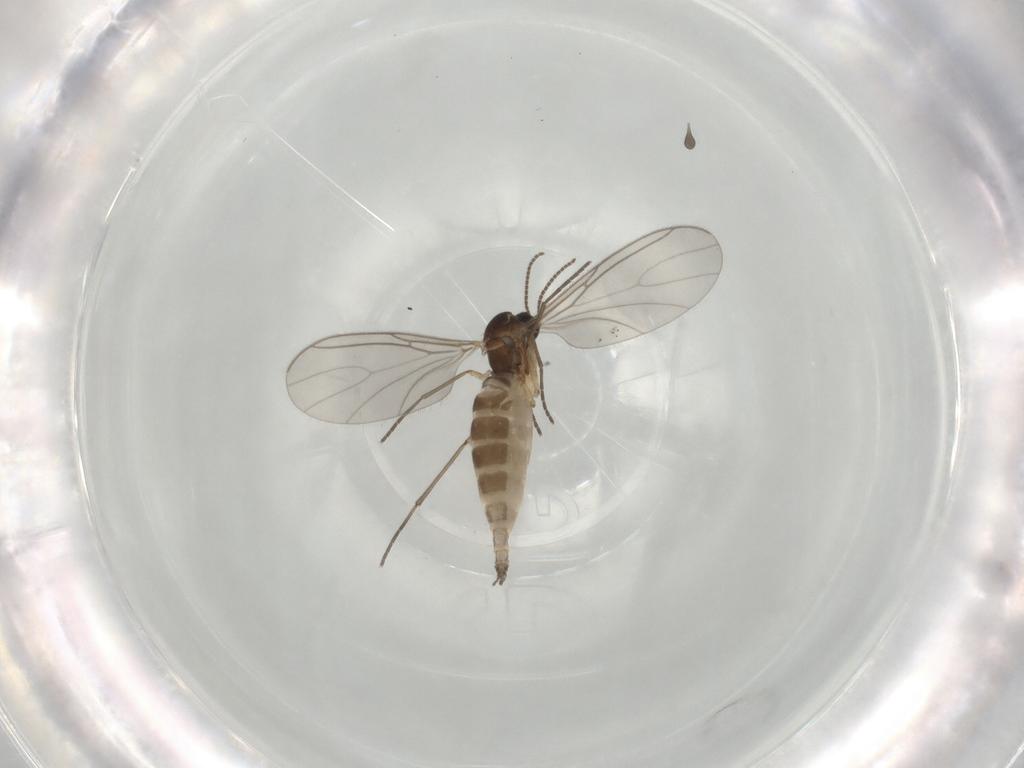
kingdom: Animalia
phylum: Arthropoda
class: Insecta
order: Diptera
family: Sciaridae
